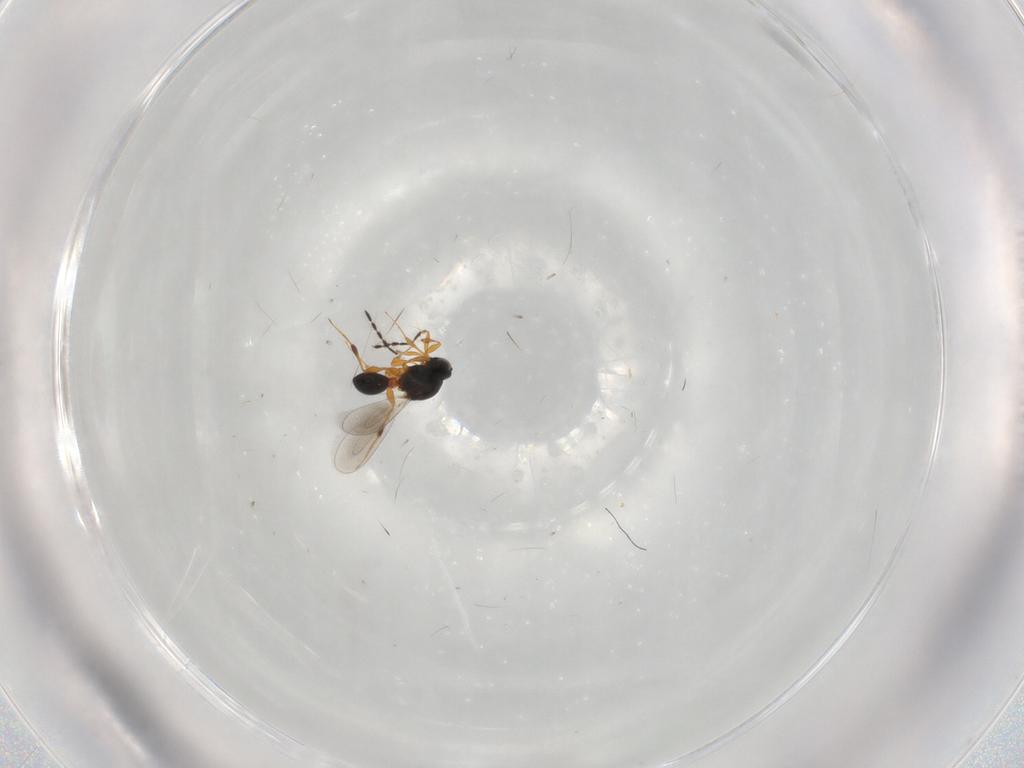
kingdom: Animalia
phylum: Arthropoda
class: Insecta
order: Hymenoptera
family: Platygastridae
